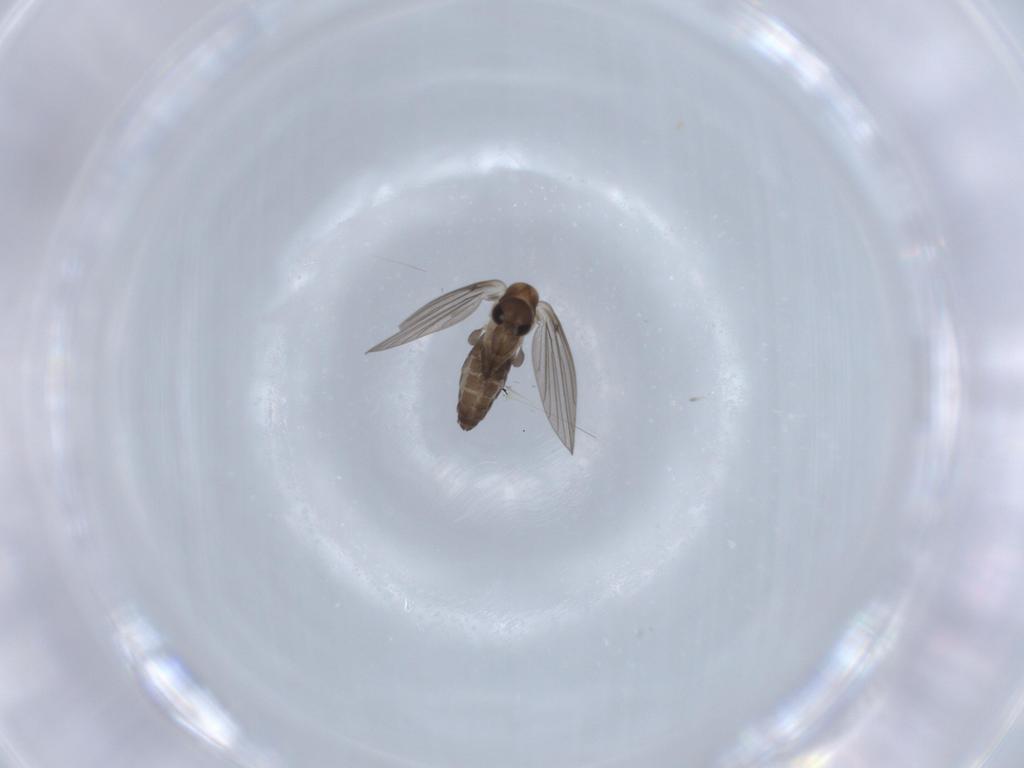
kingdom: Animalia
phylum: Arthropoda
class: Insecta
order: Diptera
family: Psychodidae
